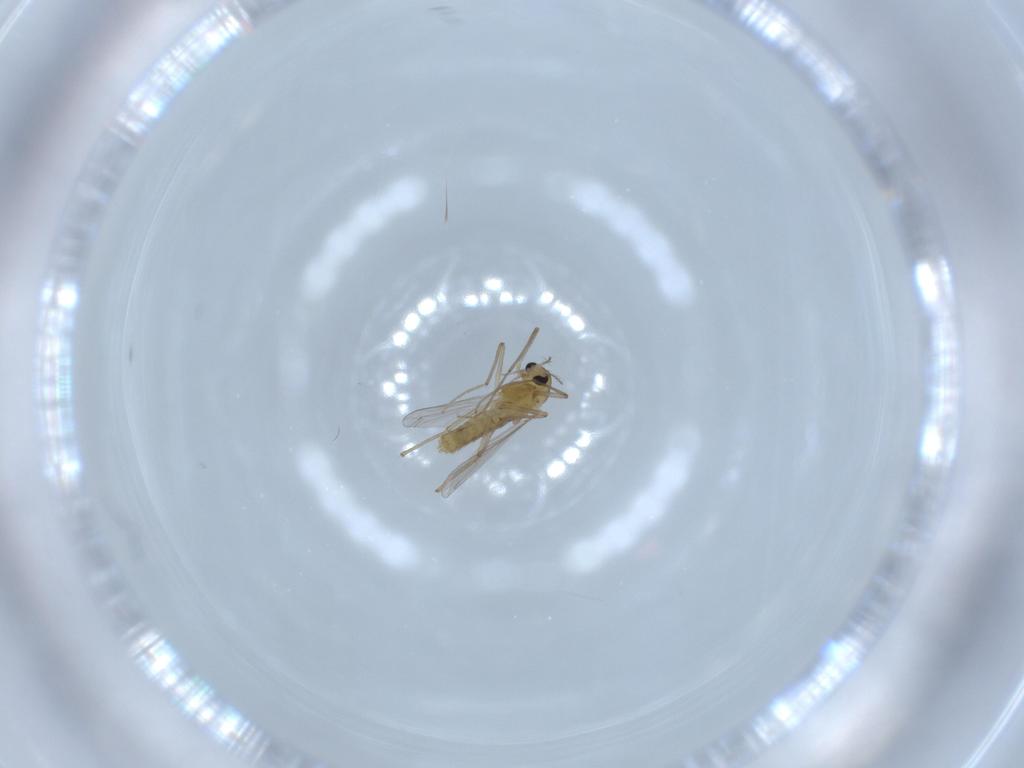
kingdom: Animalia
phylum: Arthropoda
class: Insecta
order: Diptera
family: Chironomidae
